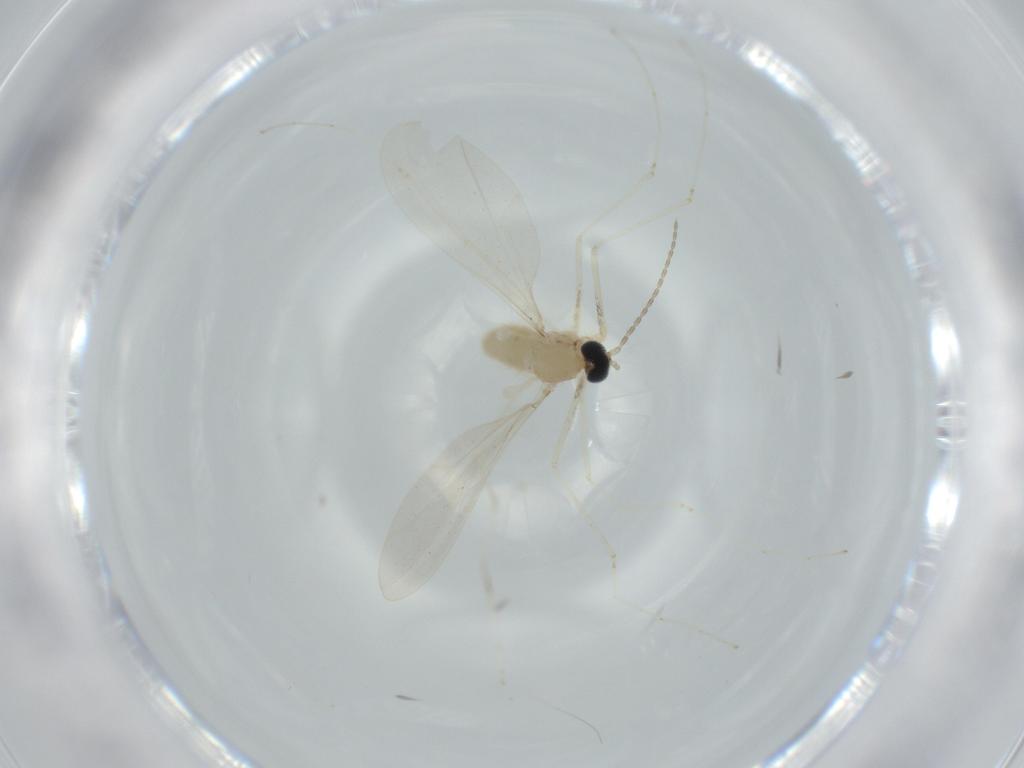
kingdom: Animalia
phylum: Arthropoda
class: Insecta
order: Diptera
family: Cecidomyiidae
